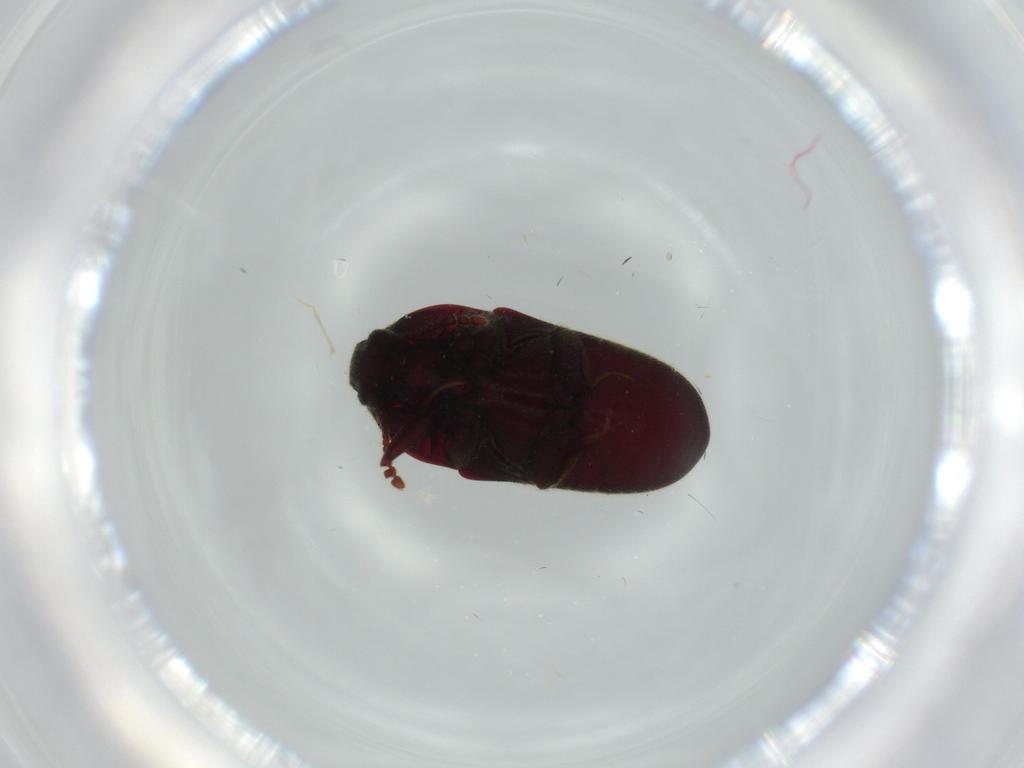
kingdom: Animalia
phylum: Arthropoda
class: Insecta
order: Coleoptera
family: Throscidae
